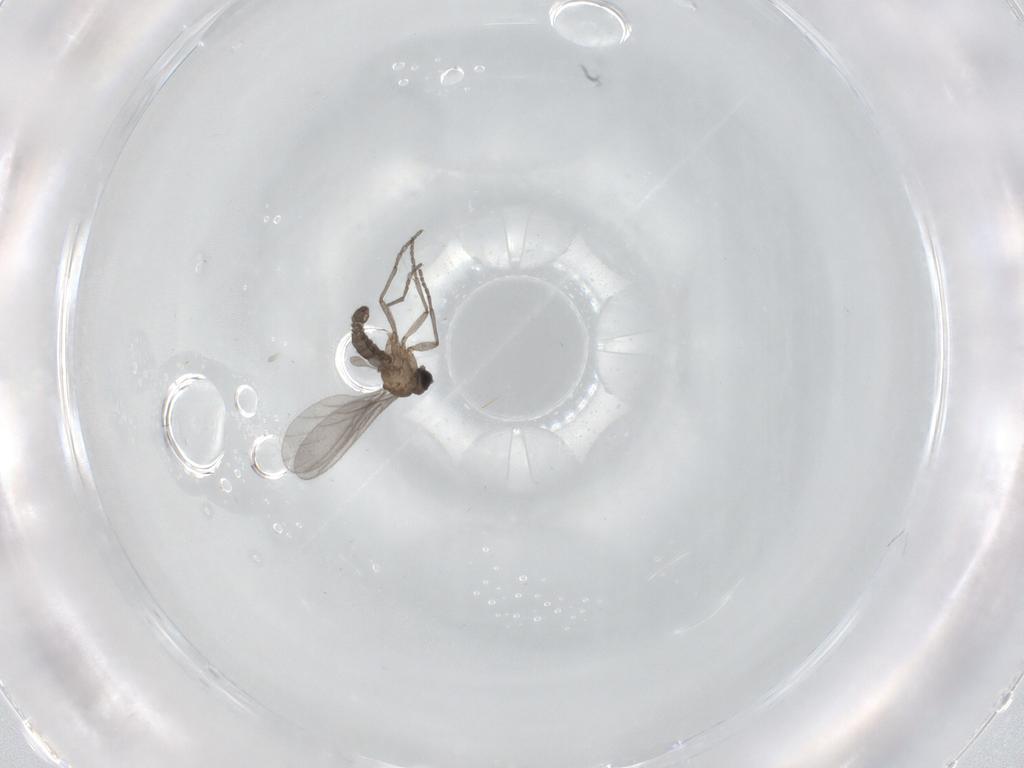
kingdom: Animalia
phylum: Arthropoda
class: Insecta
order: Diptera
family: Sciaridae
